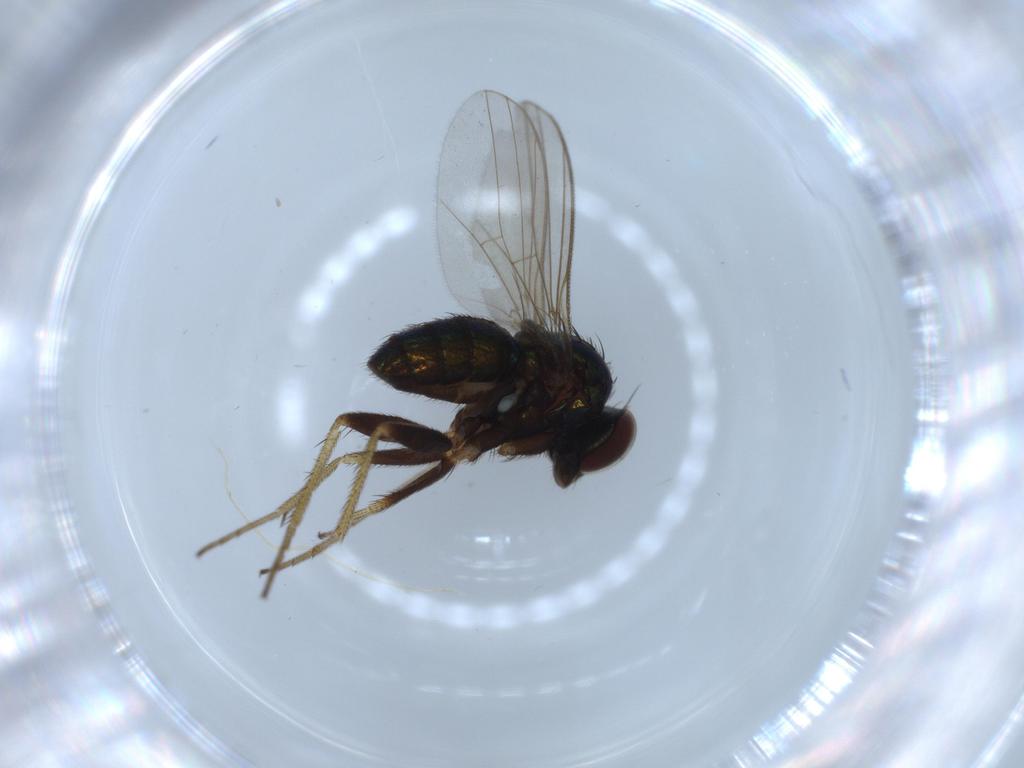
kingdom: Animalia
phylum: Arthropoda
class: Insecta
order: Diptera
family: Dolichopodidae
